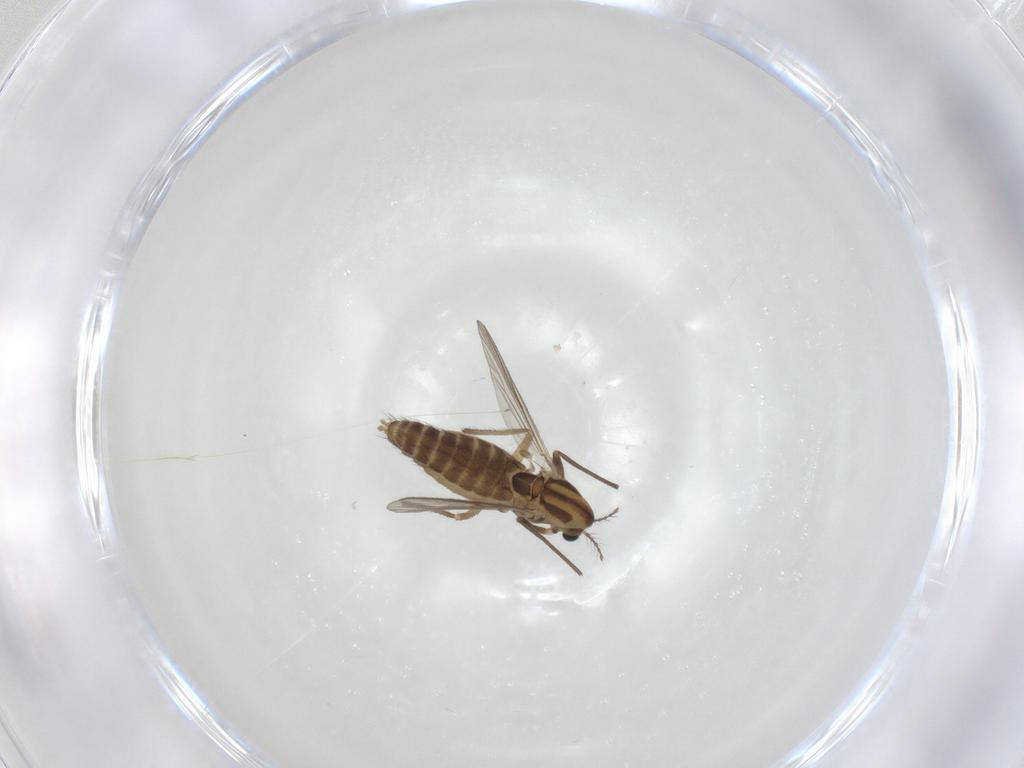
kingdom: Animalia
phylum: Arthropoda
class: Insecta
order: Diptera
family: Chironomidae
